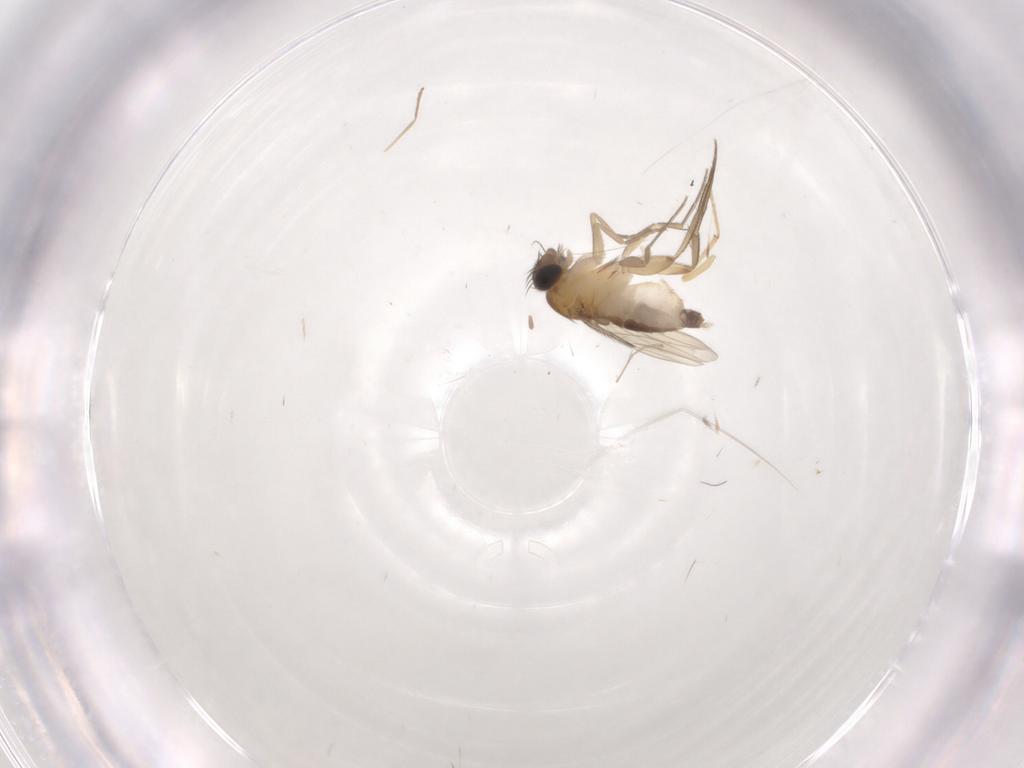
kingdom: Animalia
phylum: Arthropoda
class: Insecta
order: Diptera
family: Phoridae
